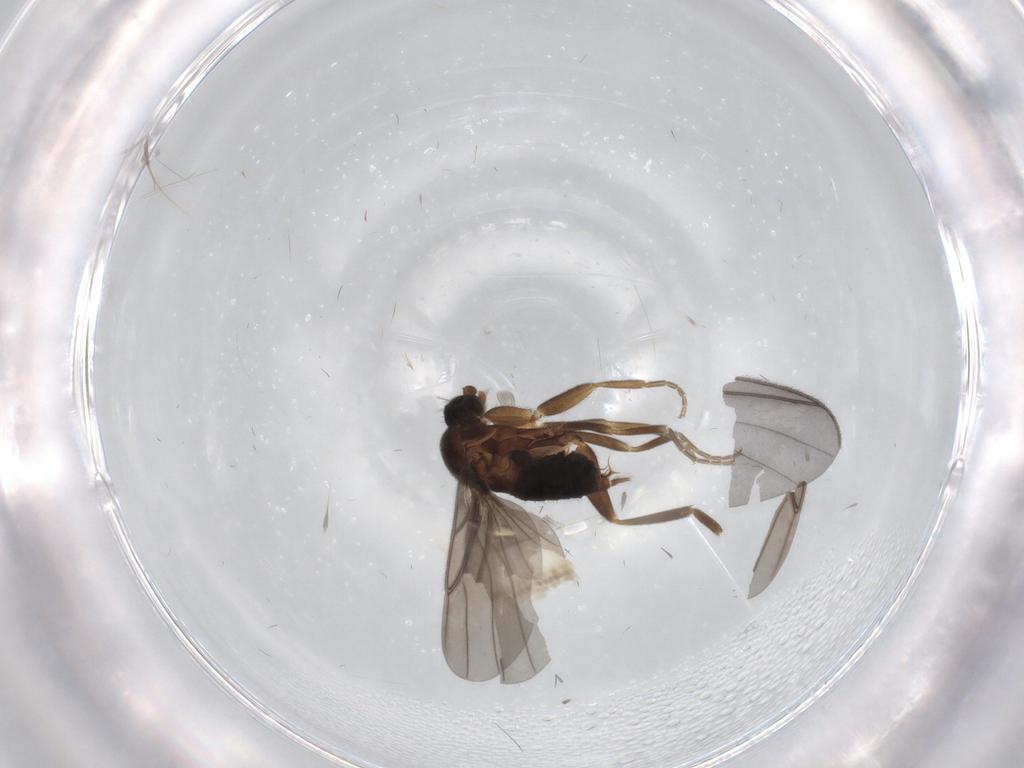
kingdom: Animalia
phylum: Arthropoda
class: Insecta
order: Diptera
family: Phoridae
